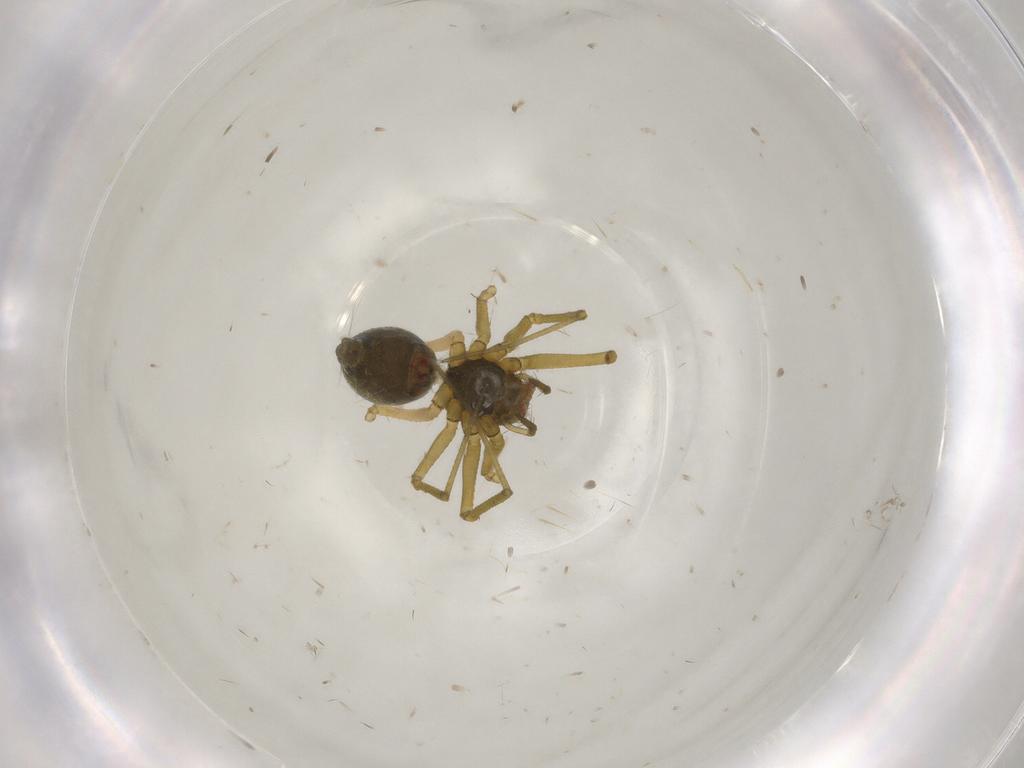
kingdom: Animalia
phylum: Arthropoda
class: Arachnida
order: Araneae
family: Linyphiidae
